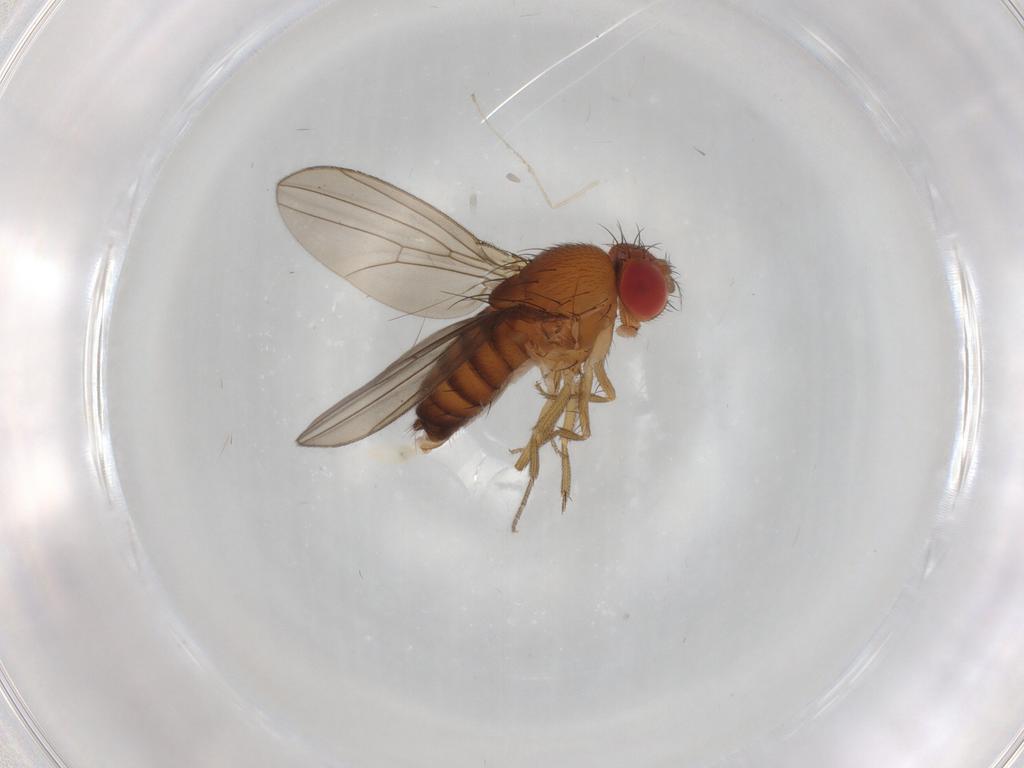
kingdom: Animalia
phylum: Arthropoda
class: Insecta
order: Diptera
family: Drosophilidae
